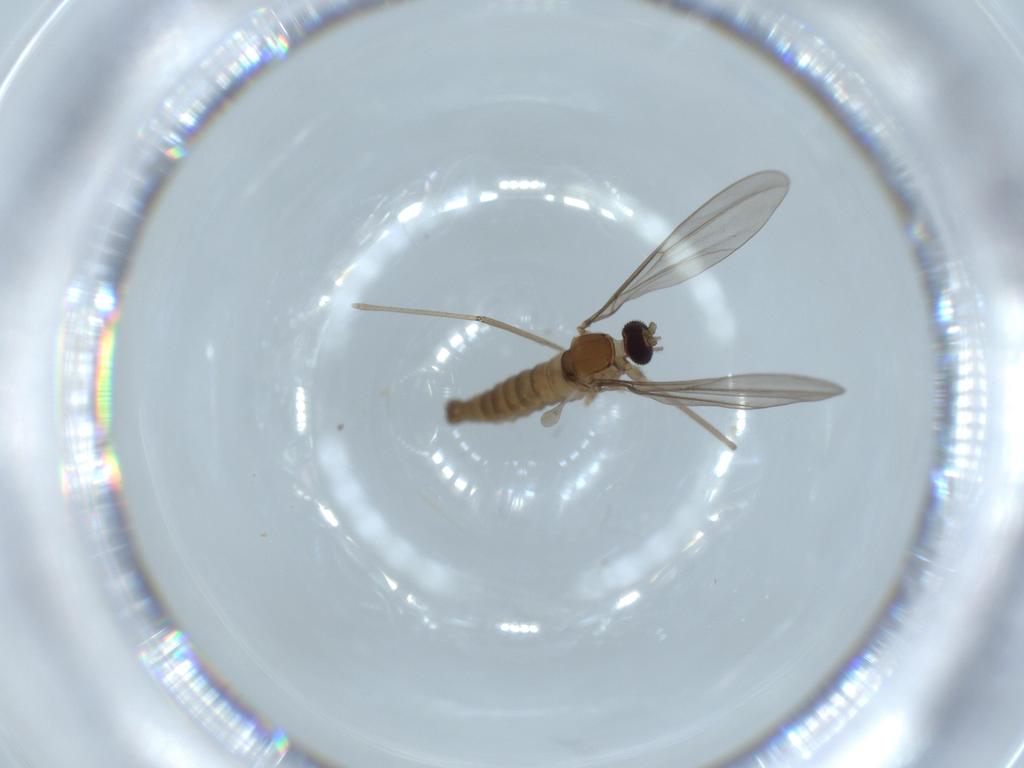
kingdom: Animalia
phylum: Arthropoda
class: Insecta
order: Diptera
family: Cecidomyiidae
